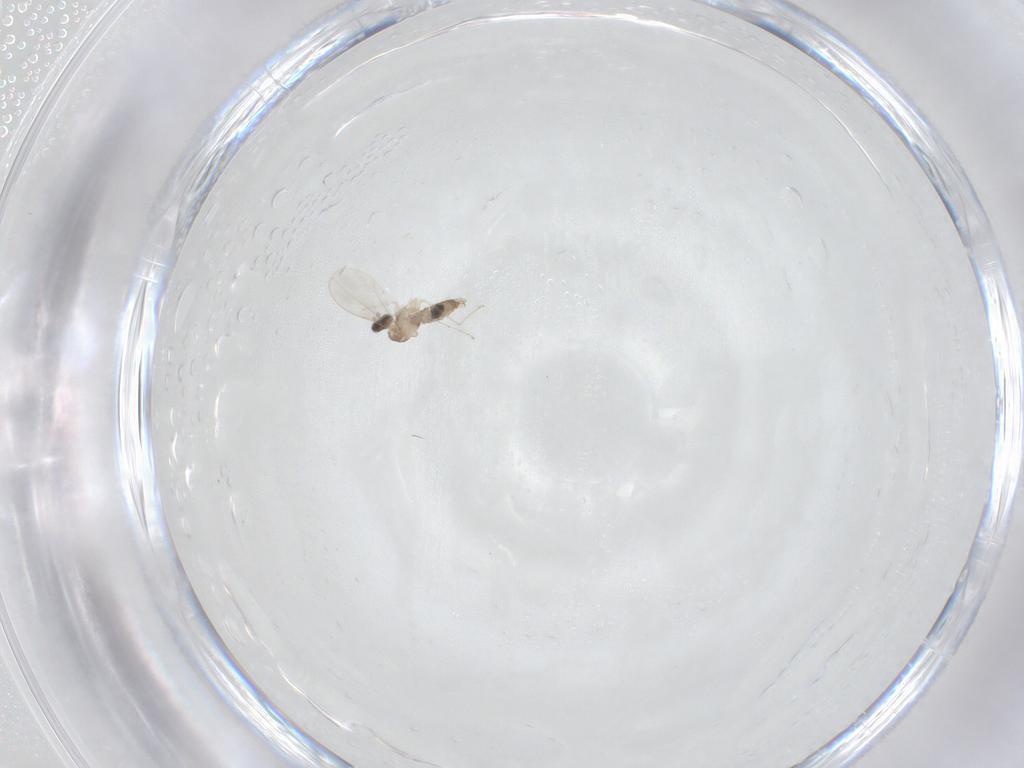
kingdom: Animalia
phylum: Arthropoda
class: Insecta
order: Diptera
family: Cecidomyiidae
